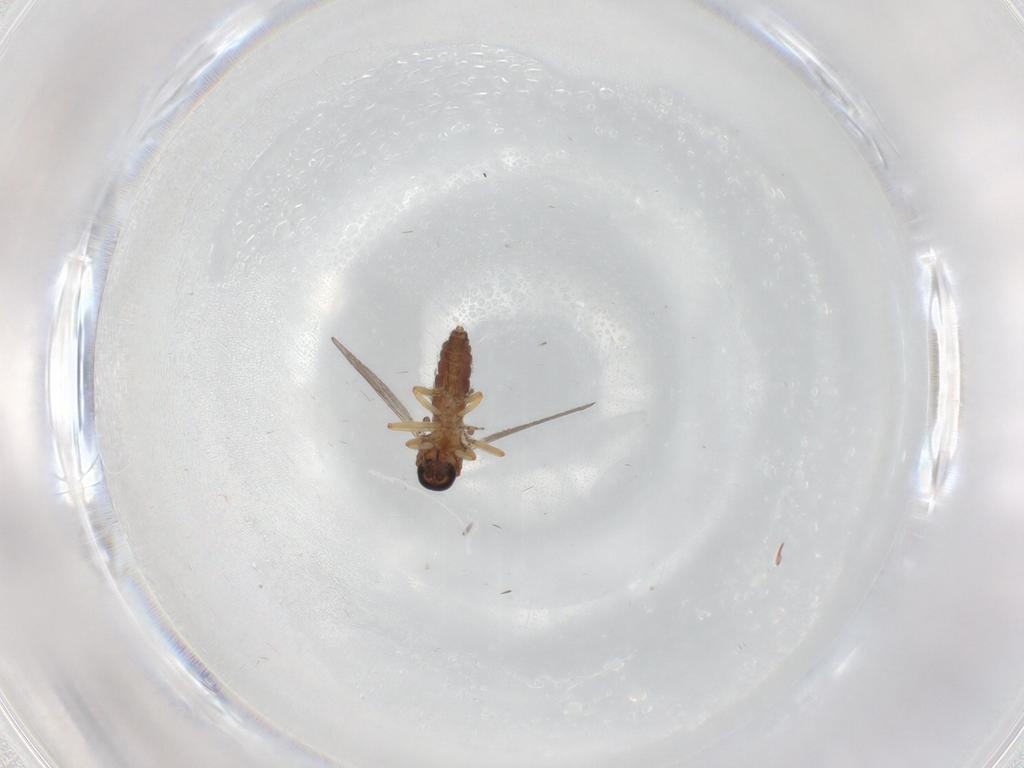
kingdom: Animalia
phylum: Arthropoda
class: Insecta
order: Diptera
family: Ceratopogonidae
